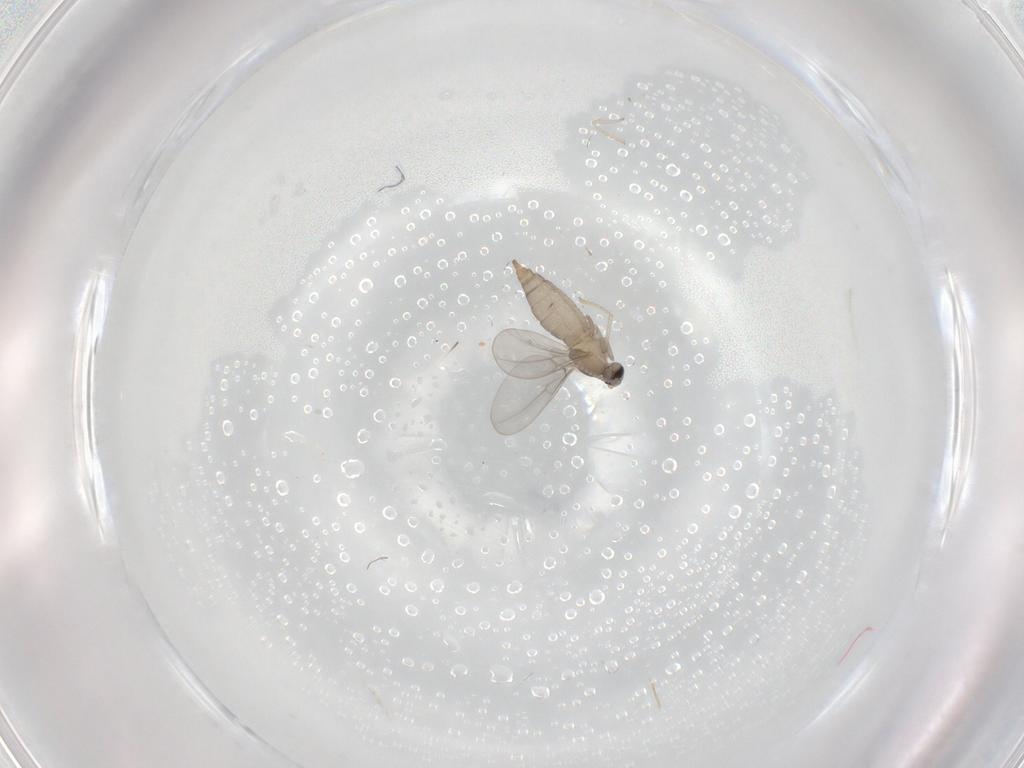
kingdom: Animalia
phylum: Arthropoda
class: Insecta
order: Diptera
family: Cecidomyiidae
